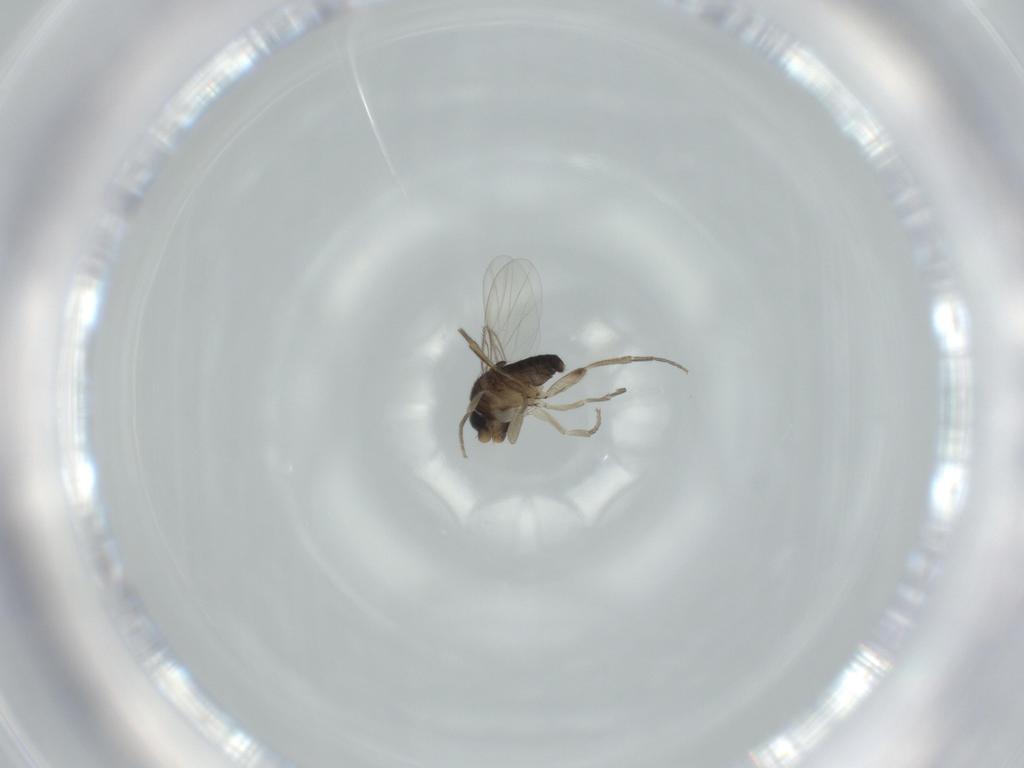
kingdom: Animalia
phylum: Arthropoda
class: Insecta
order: Diptera
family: Phoridae
